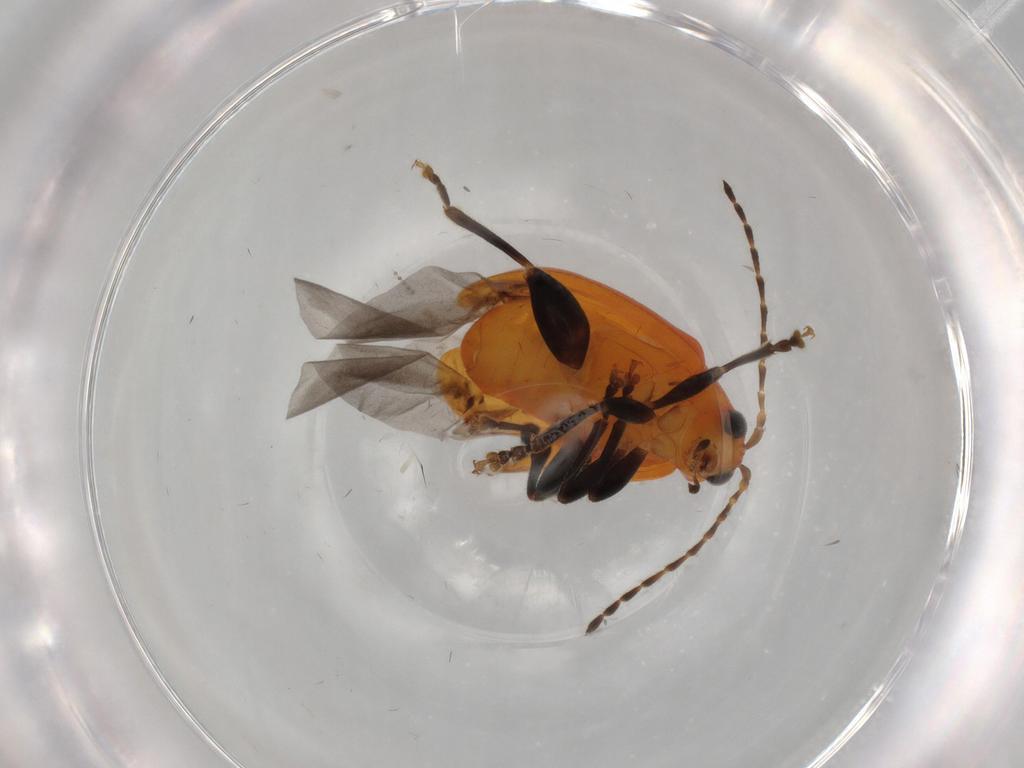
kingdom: Animalia
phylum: Arthropoda
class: Insecta
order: Coleoptera
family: Chrysomelidae
